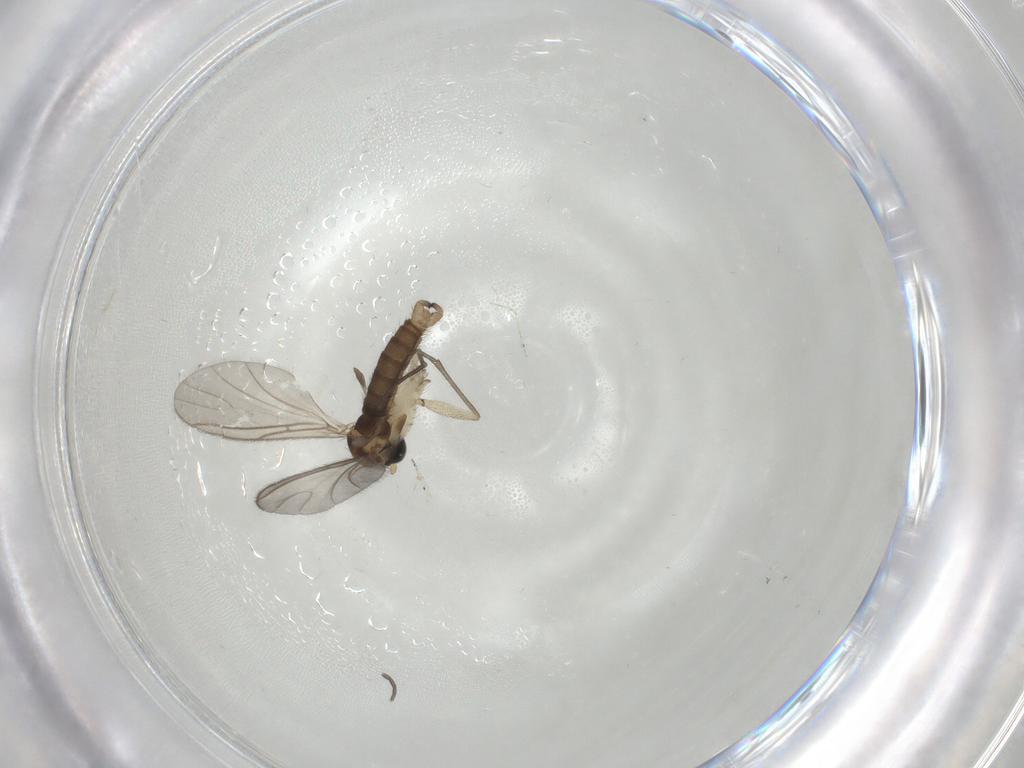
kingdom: Animalia
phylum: Arthropoda
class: Insecta
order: Diptera
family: Sciaridae
